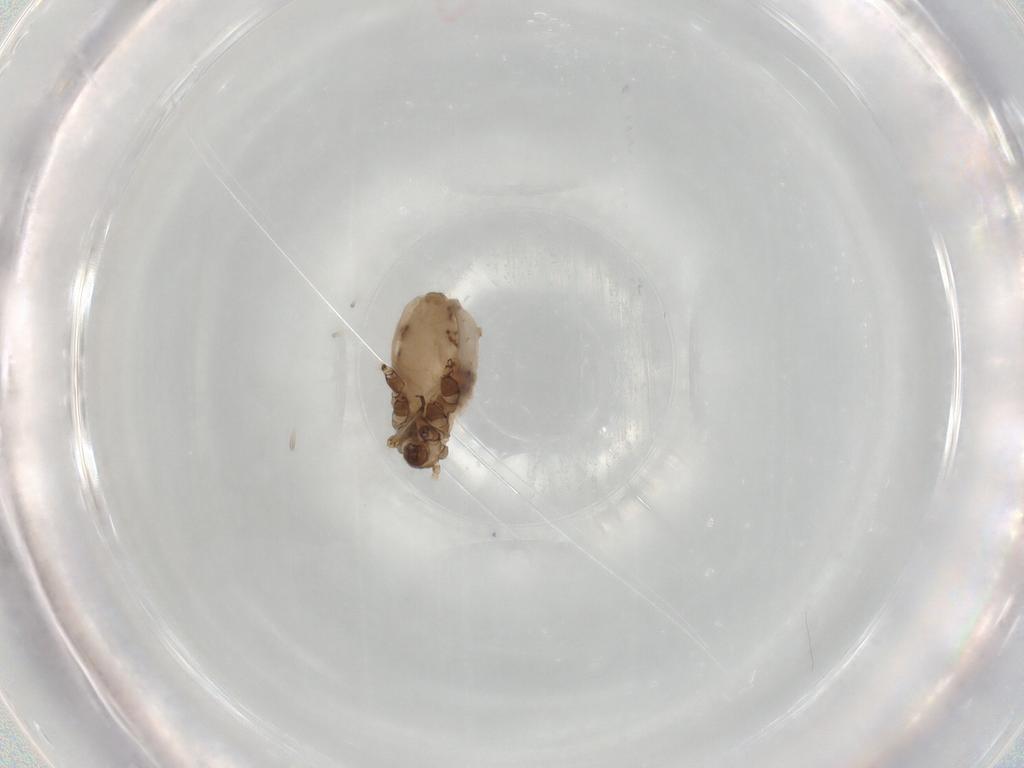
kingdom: Animalia
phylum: Arthropoda
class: Insecta
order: Hemiptera
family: Aphididae
